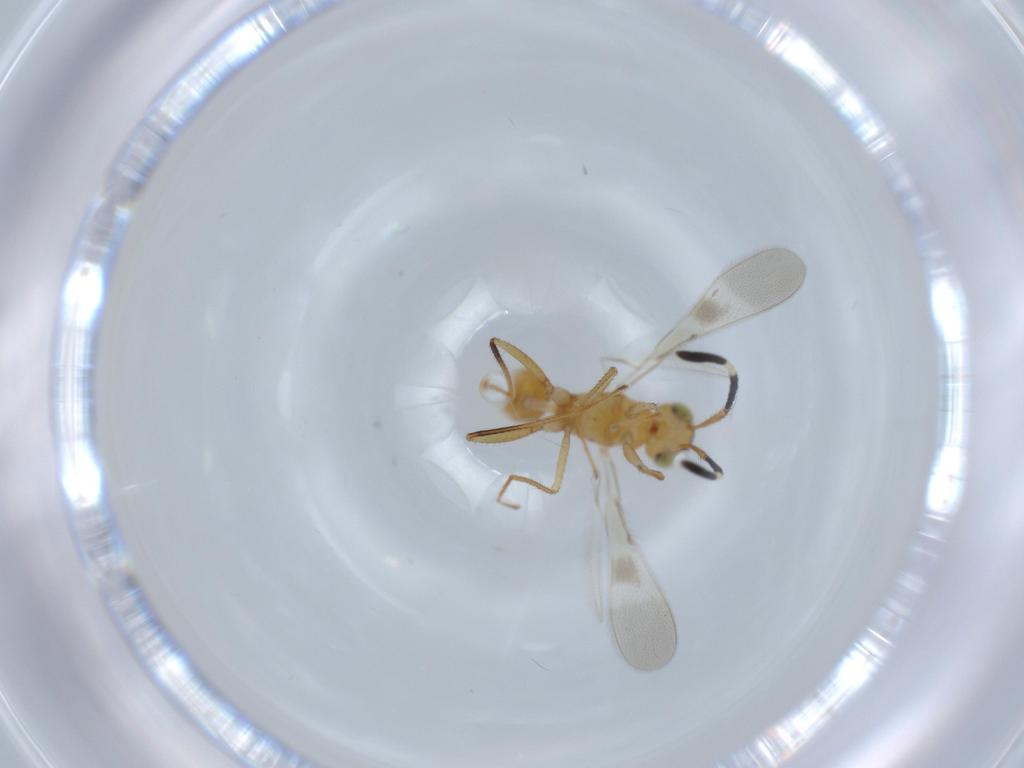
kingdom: Animalia
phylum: Arthropoda
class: Insecta
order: Hymenoptera
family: Mymaridae
